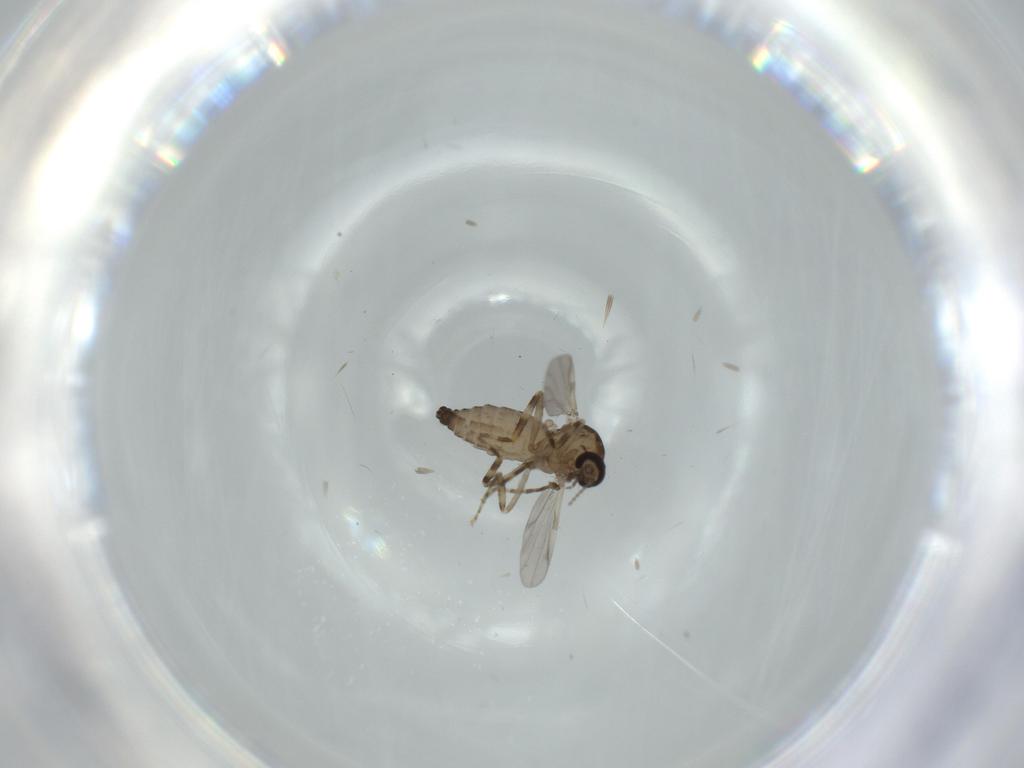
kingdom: Animalia
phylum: Arthropoda
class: Insecta
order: Diptera
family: Ceratopogonidae
